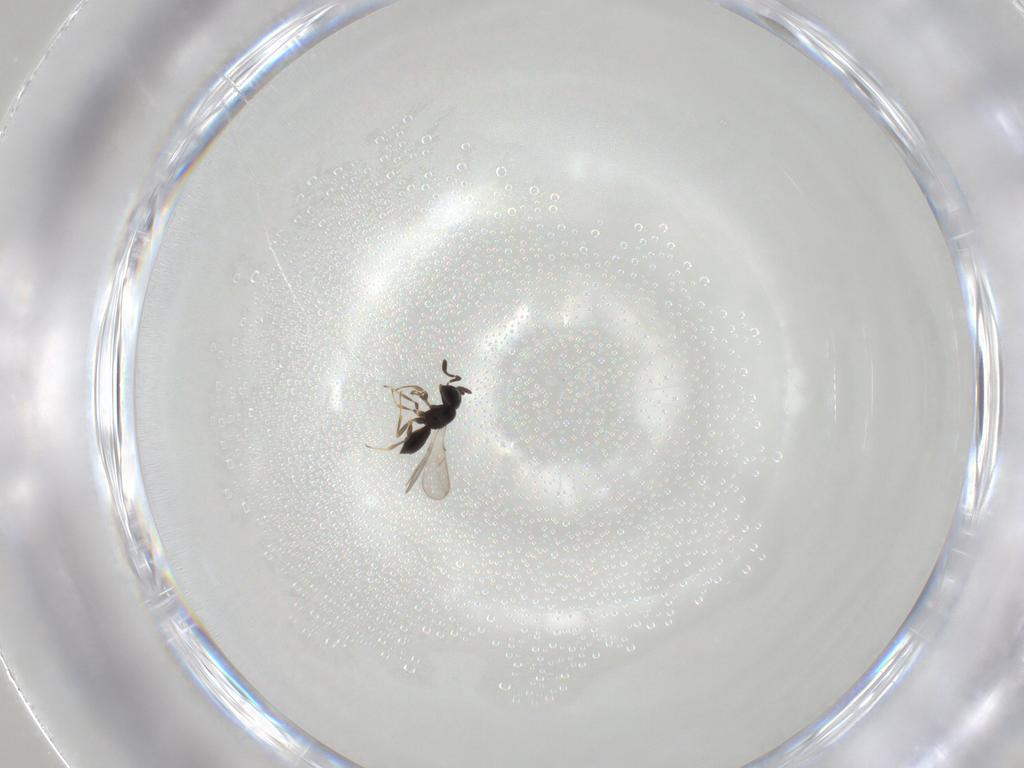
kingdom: Animalia
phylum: Arthropoda
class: Insecta
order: Hymenoptera
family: Scelionidae
